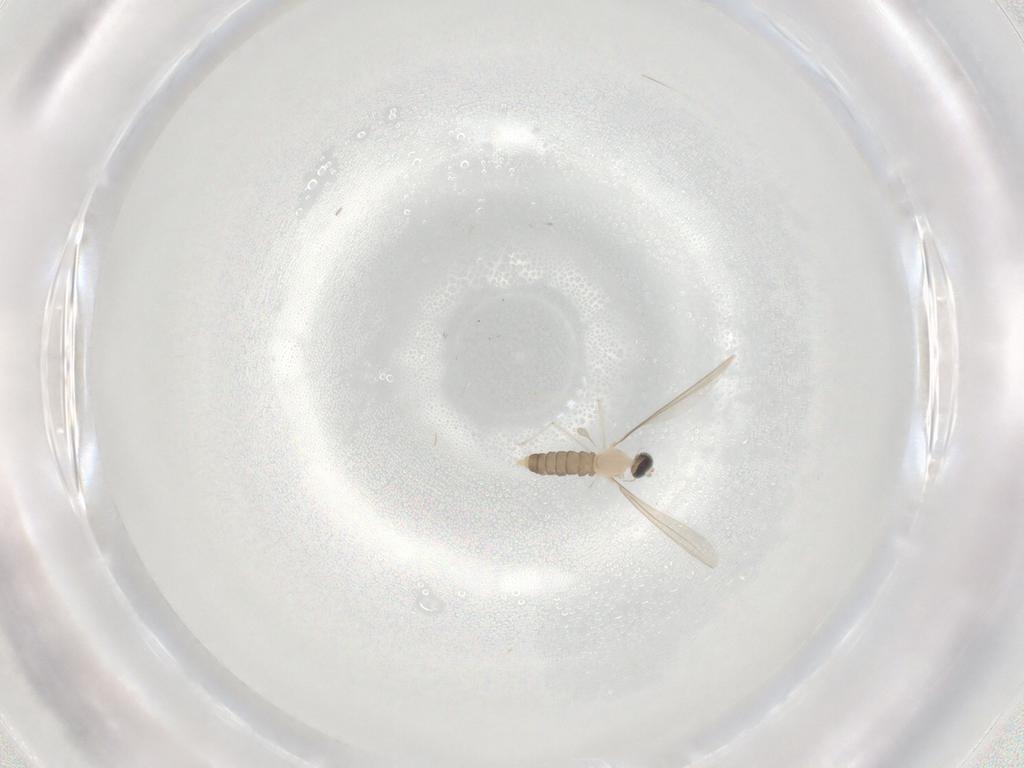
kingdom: Animalia
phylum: Arthropoda
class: Insecta
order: Diptera
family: Cecidomyiidae
